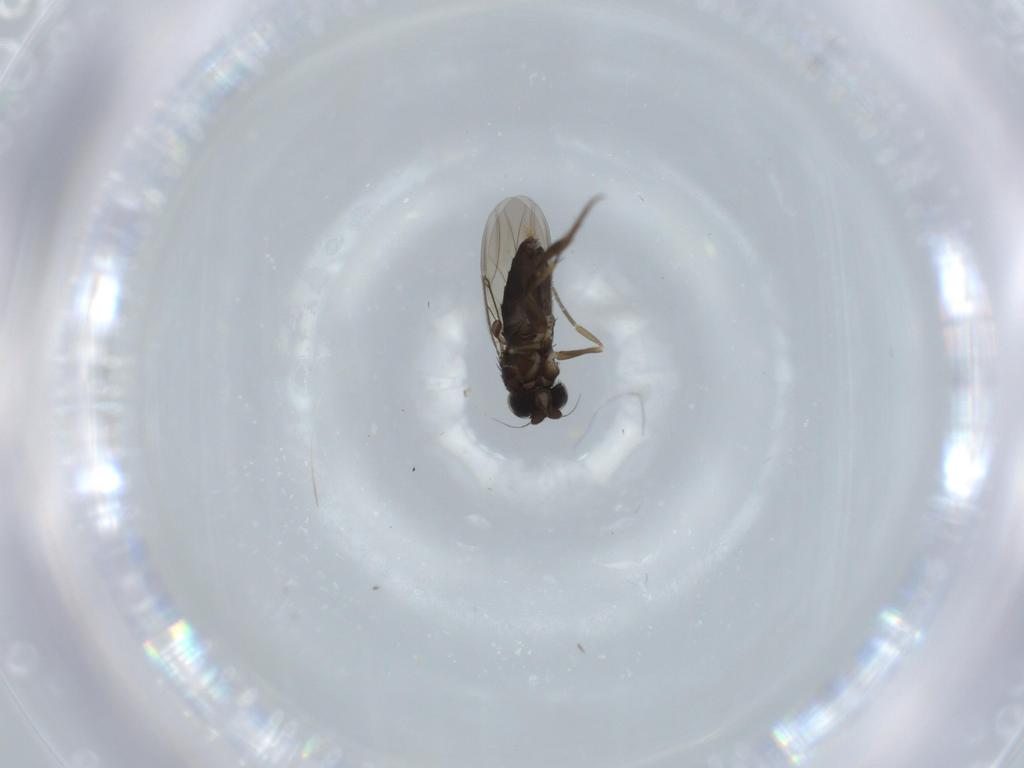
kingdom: Animalia
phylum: Arthropoda
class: Insecta
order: Diptera
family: Phoridae
